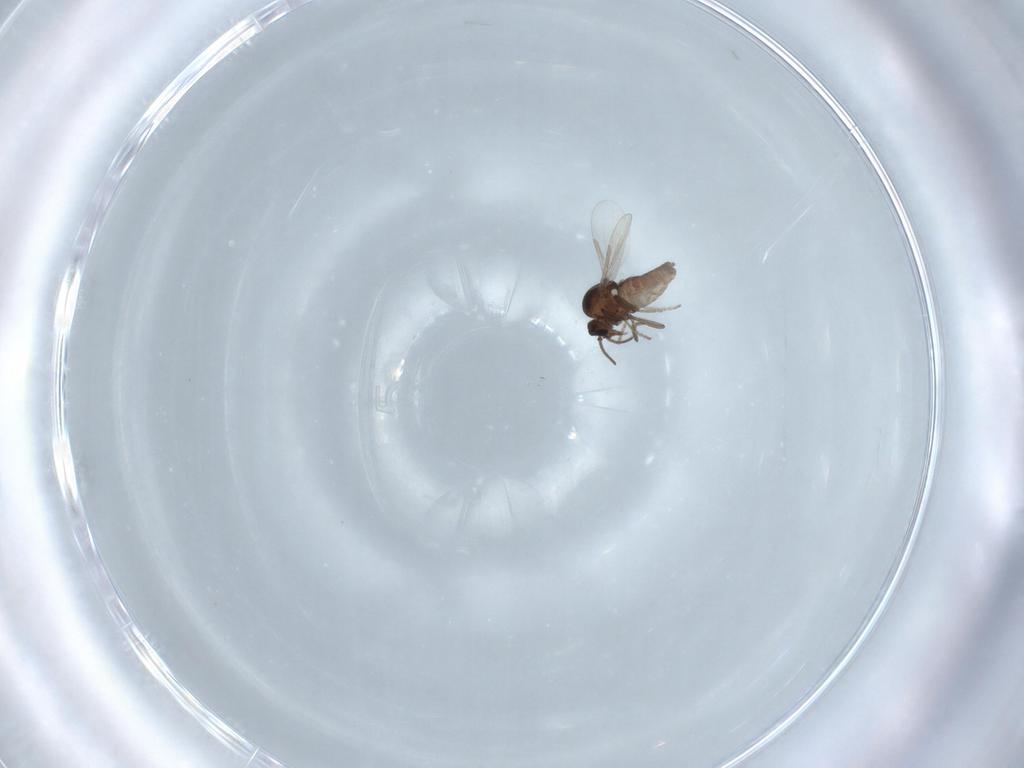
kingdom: Animalia
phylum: Arthropoda
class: Insecta
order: Diptera
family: Ceratopogonidae
